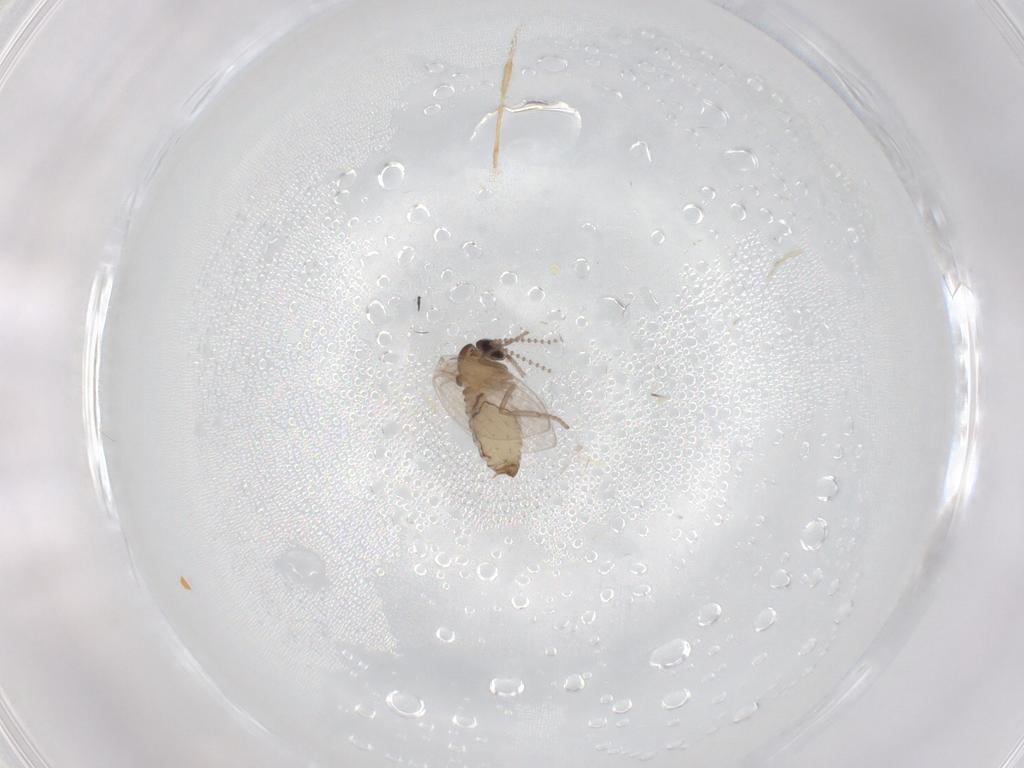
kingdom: Animalia
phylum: Arthropoda
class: Insecta
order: Diptera
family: Psychodidae
